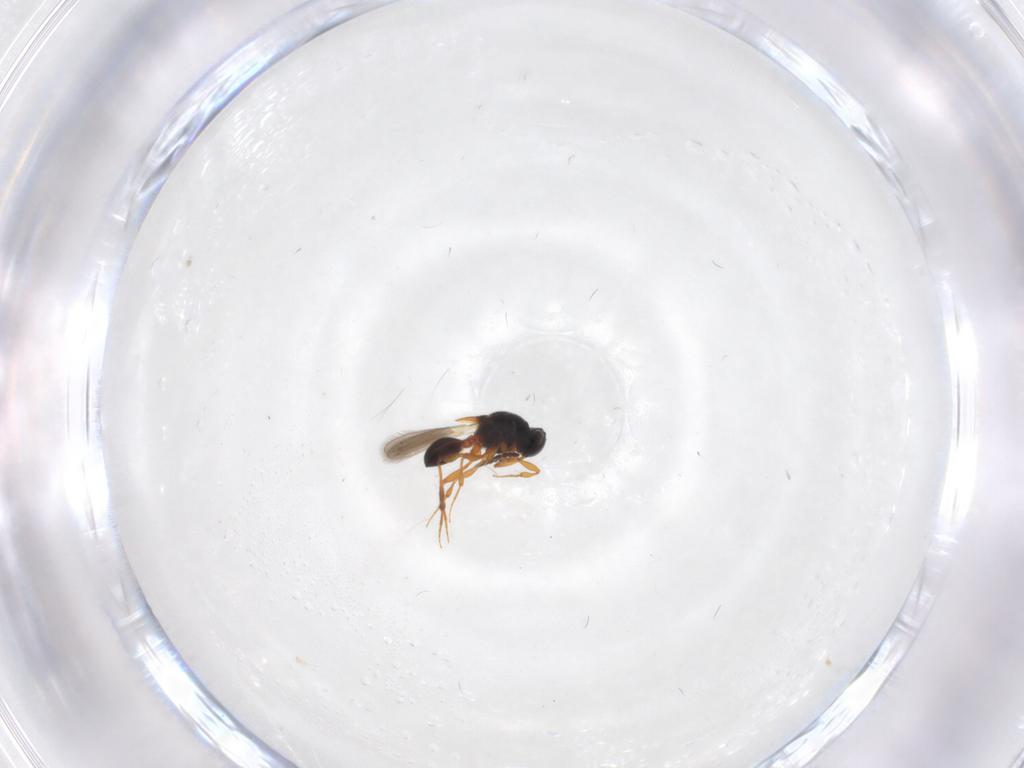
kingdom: Animalia
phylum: Arthropoda
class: Insecta
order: Hymenoptera
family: Platygastridae
